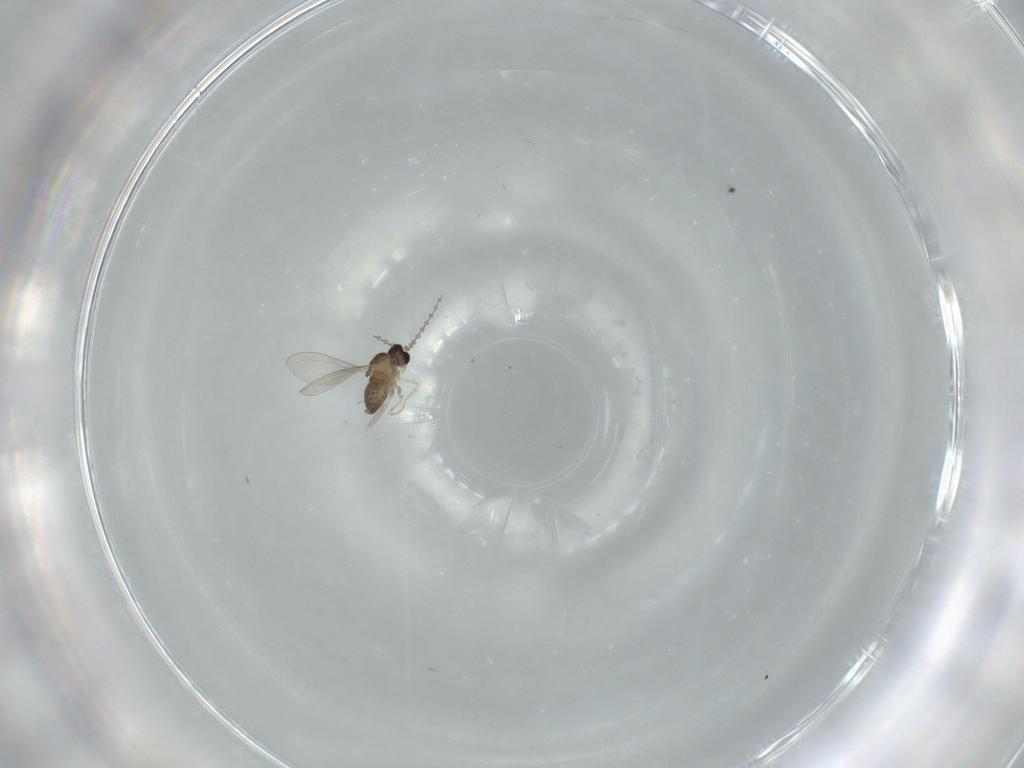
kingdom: Animalia
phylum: Arthropoda
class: Insecta
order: Diptera
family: Cecidomyiidae
